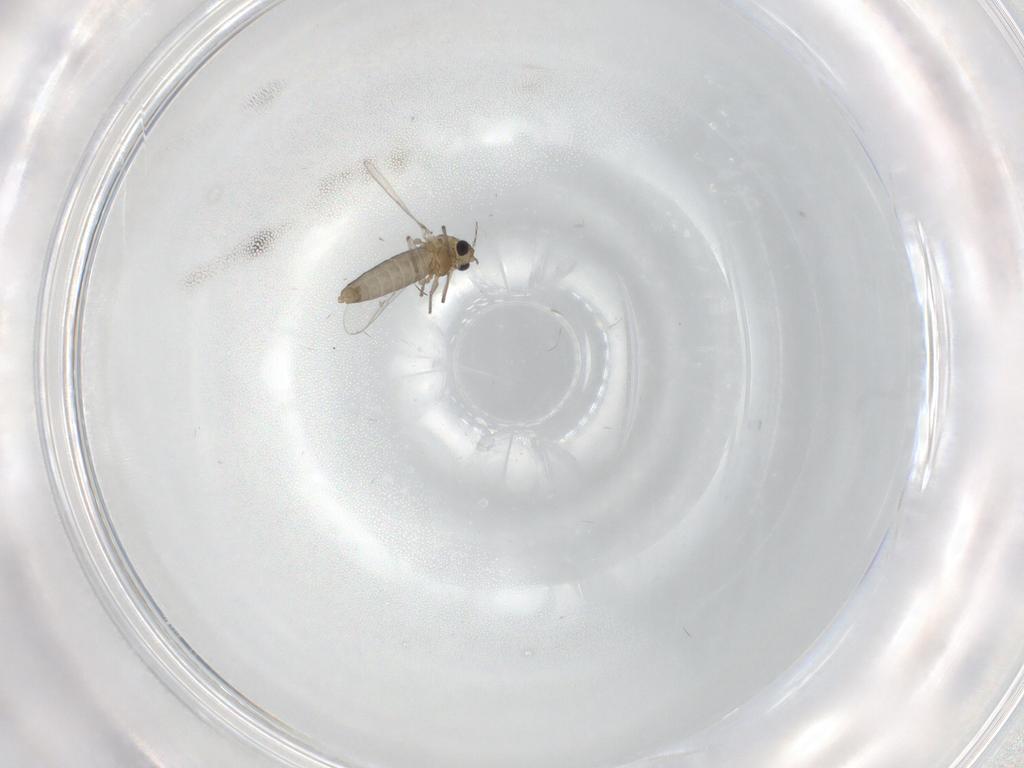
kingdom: Animalia
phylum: Arthropoda
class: Insecta
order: Diptera
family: Chironomidae
